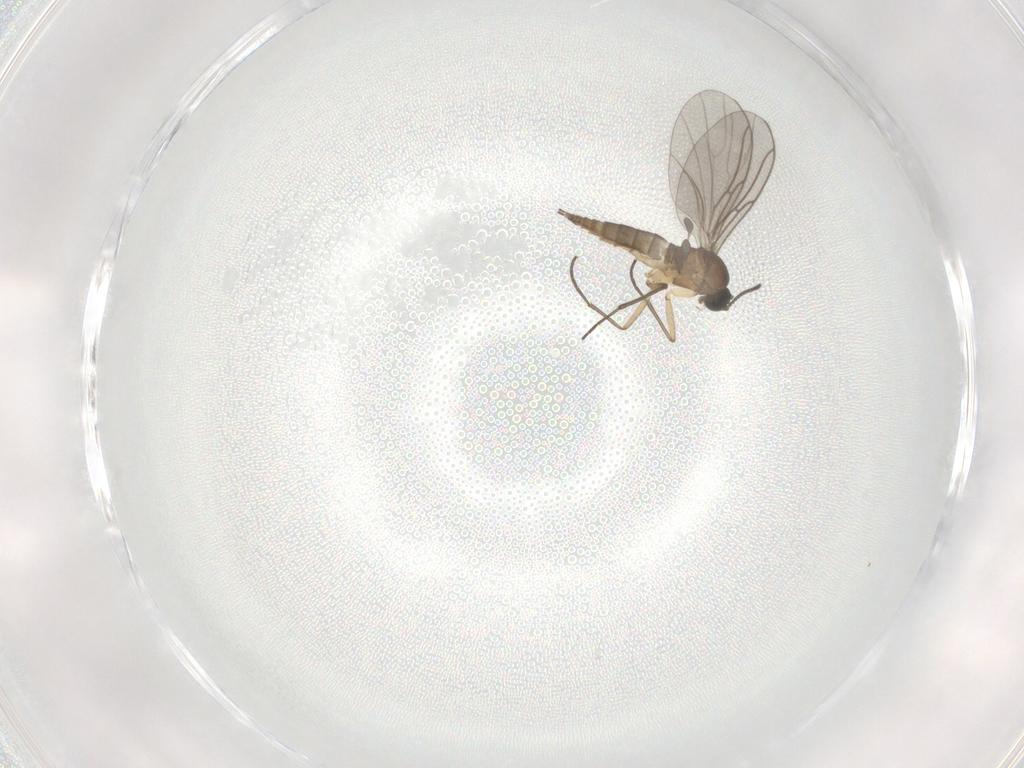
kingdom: Animalia
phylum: Arthropoda
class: Insecta
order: Diptera
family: Sciaridae
